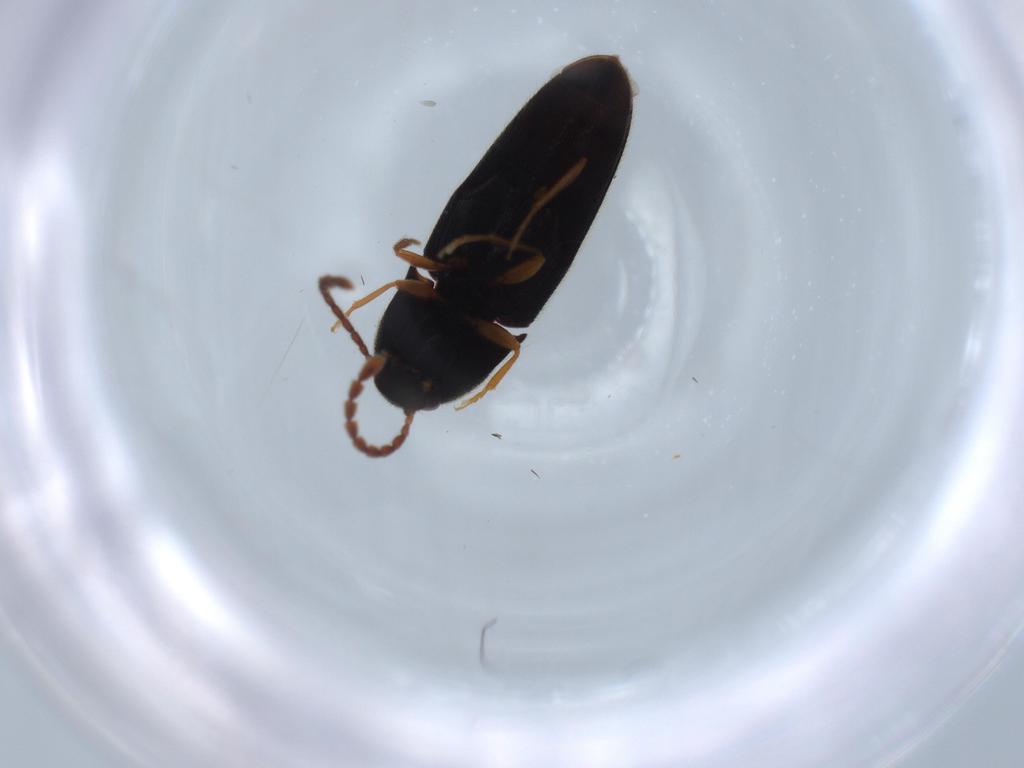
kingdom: Animalia
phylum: Arthropoda
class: Insecta
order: Coleoptera
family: Elateridae
